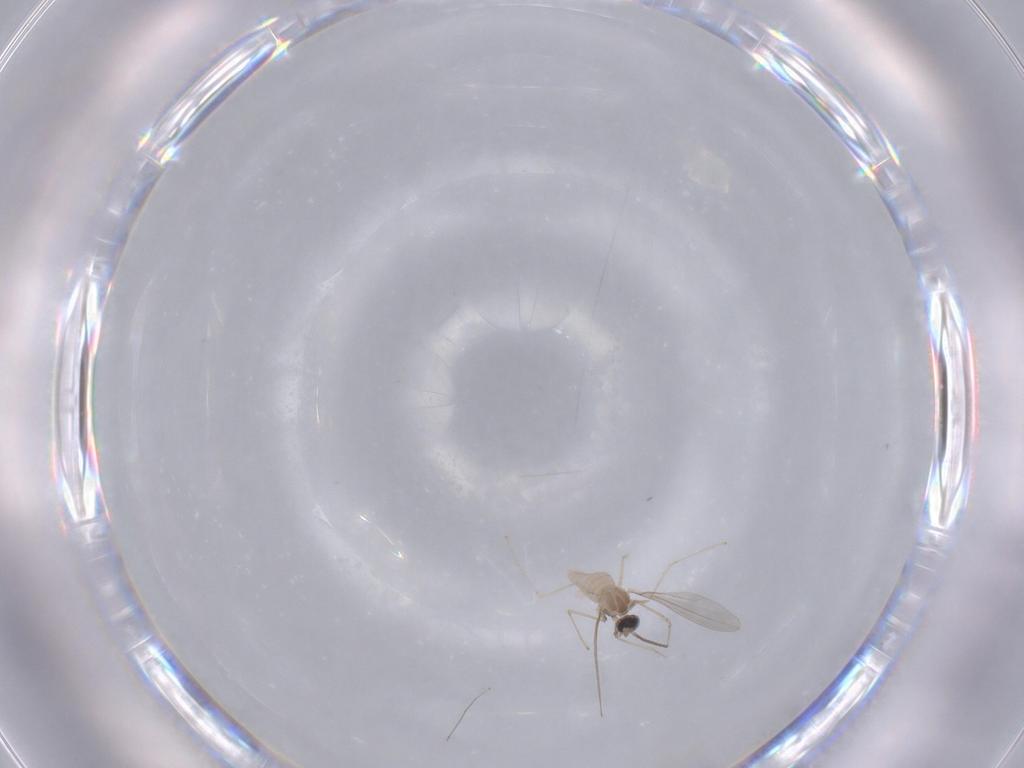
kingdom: Animalia
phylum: Arthropoda
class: Insecta
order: Diptera
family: Cecidomyiidae
